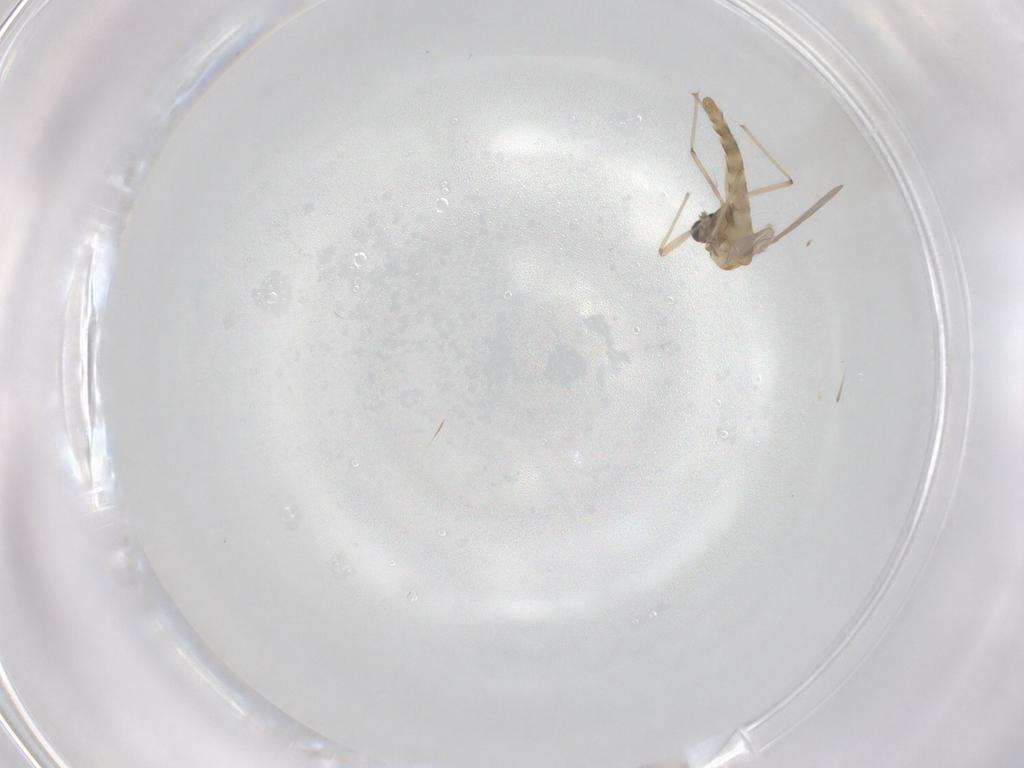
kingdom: Animalia
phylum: Arthropoda
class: Insecta
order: Diptera
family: Chironomidae
